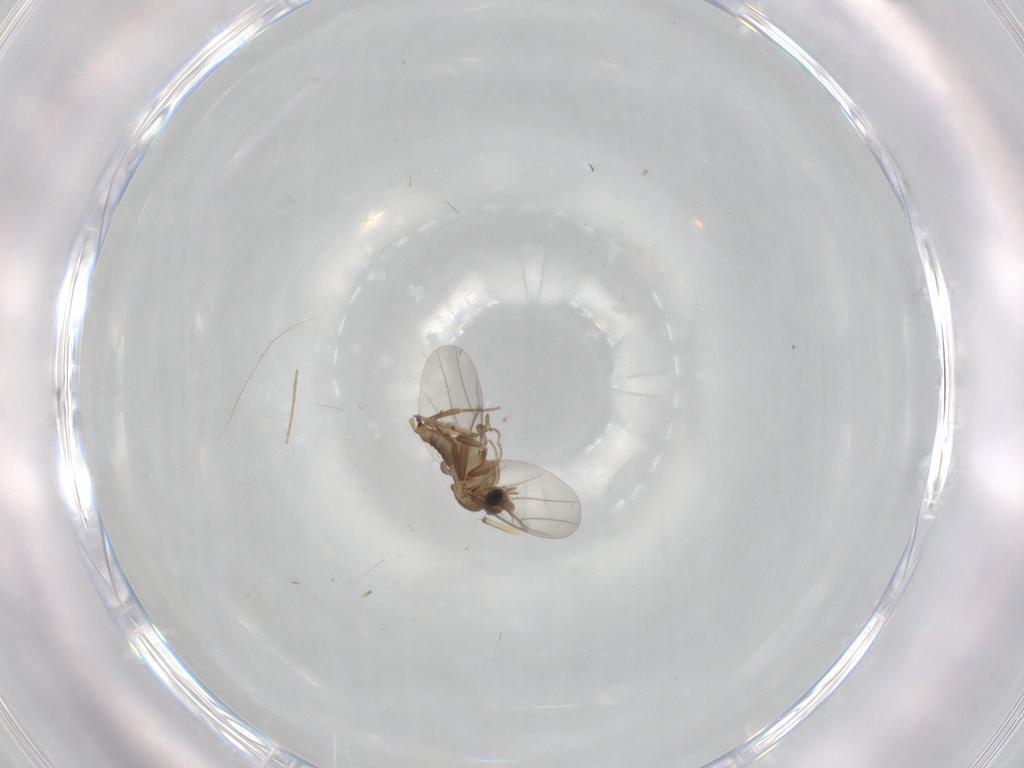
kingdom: Animalia
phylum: Arthropoda
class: Insecta
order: Diptera
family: Chironomidae
